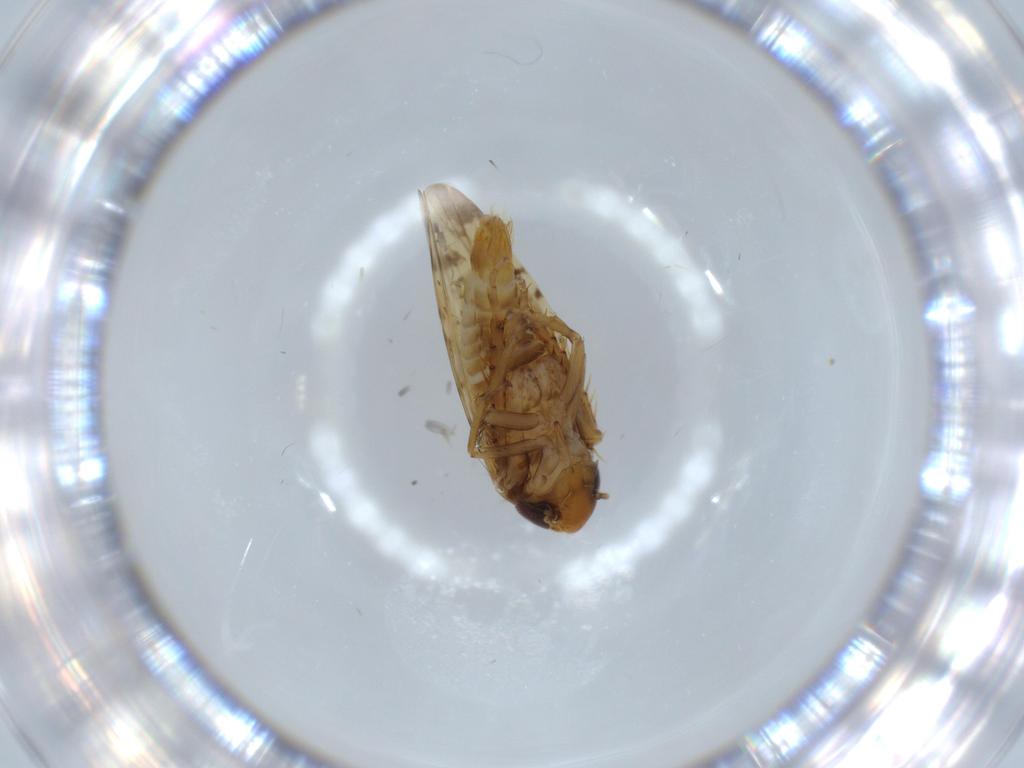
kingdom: Animalia
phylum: Arthropoda
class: Insecta
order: Hemiptera
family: Cicadellidae
